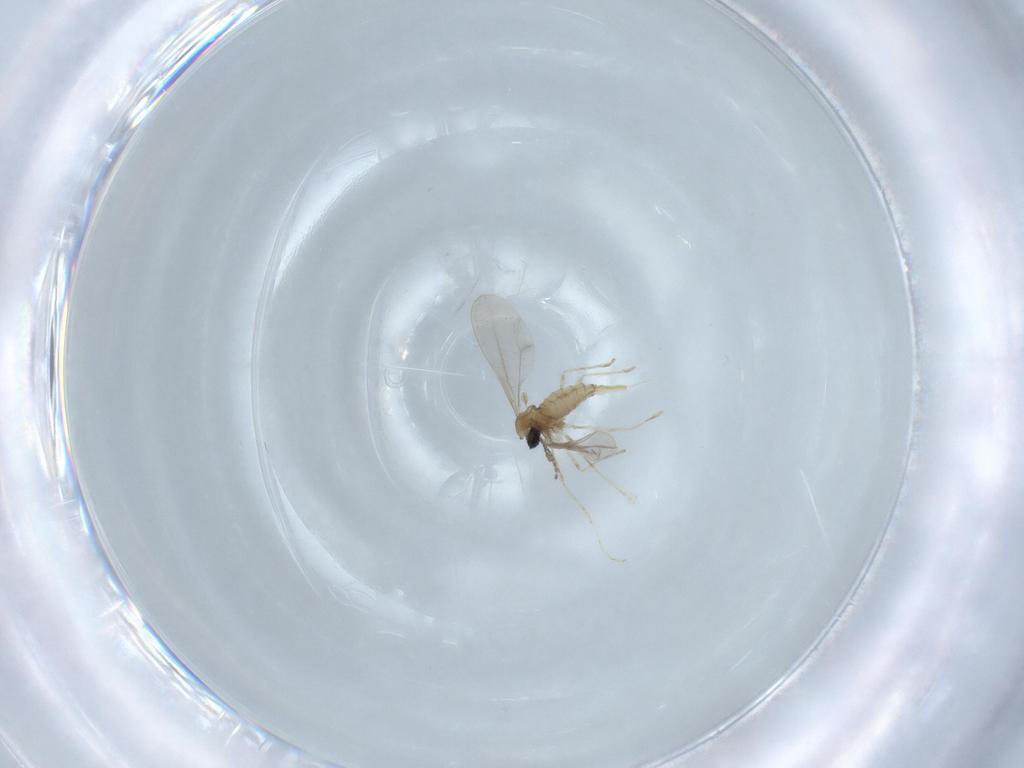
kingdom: Animalia
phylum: Arthropoda
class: Insecta
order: Diptera
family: Cecidomyiidae
